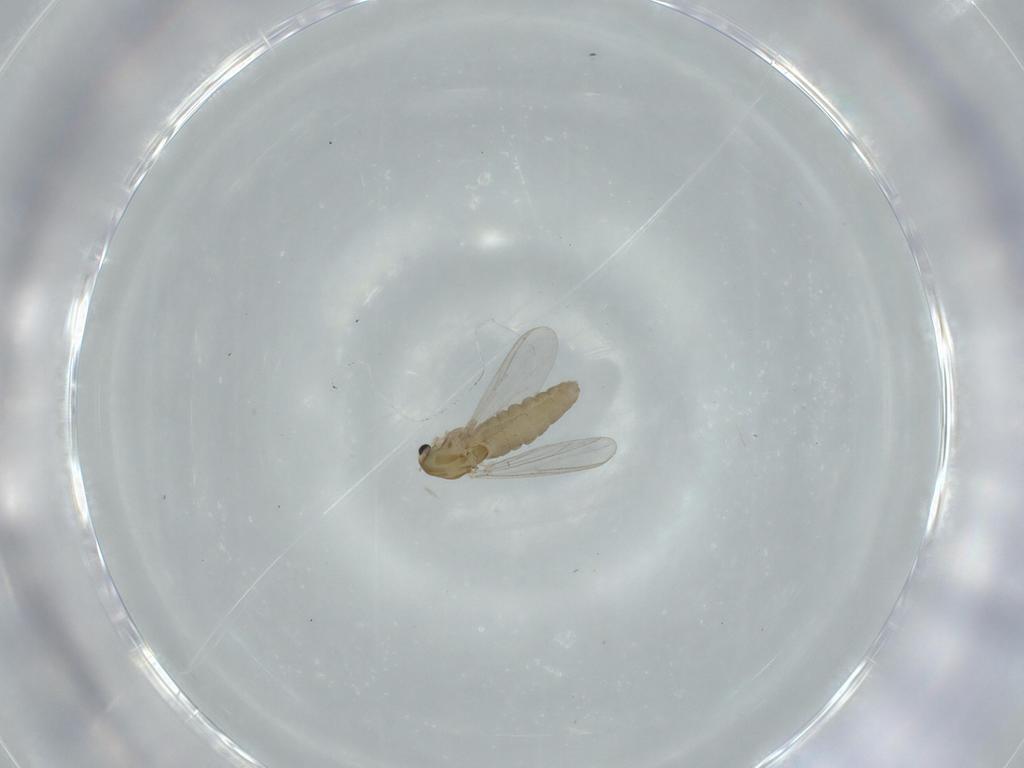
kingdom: Animalia
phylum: Arthropoda
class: Insecta
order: Diptera
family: Chironomidae
